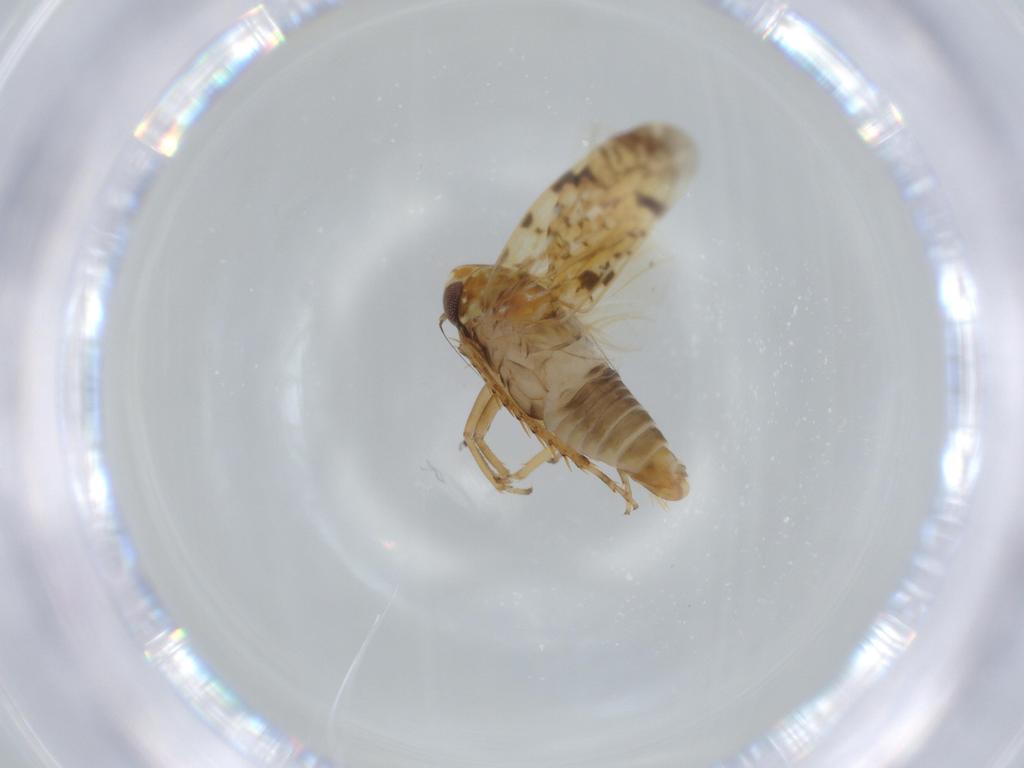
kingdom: Animalia
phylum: Arthropoda
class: Insecta
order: Hemiptera
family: Cicadellidae
